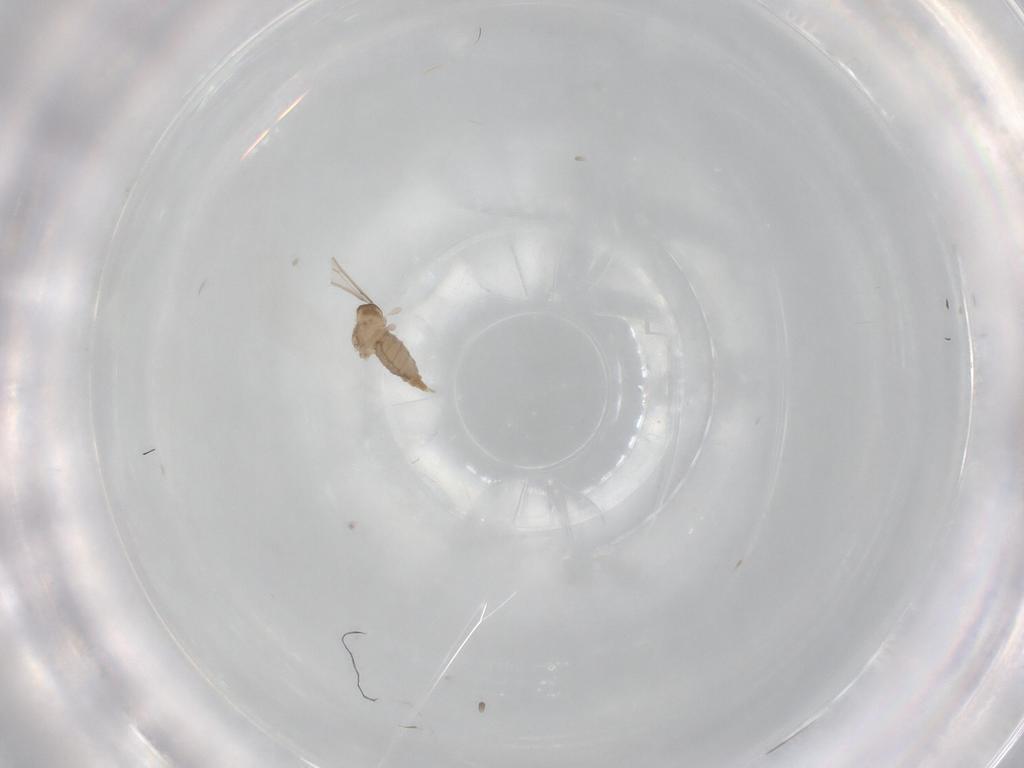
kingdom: Animalia
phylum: Arthropoda
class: Insecta
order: Diptera
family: Cecidomyiidae
